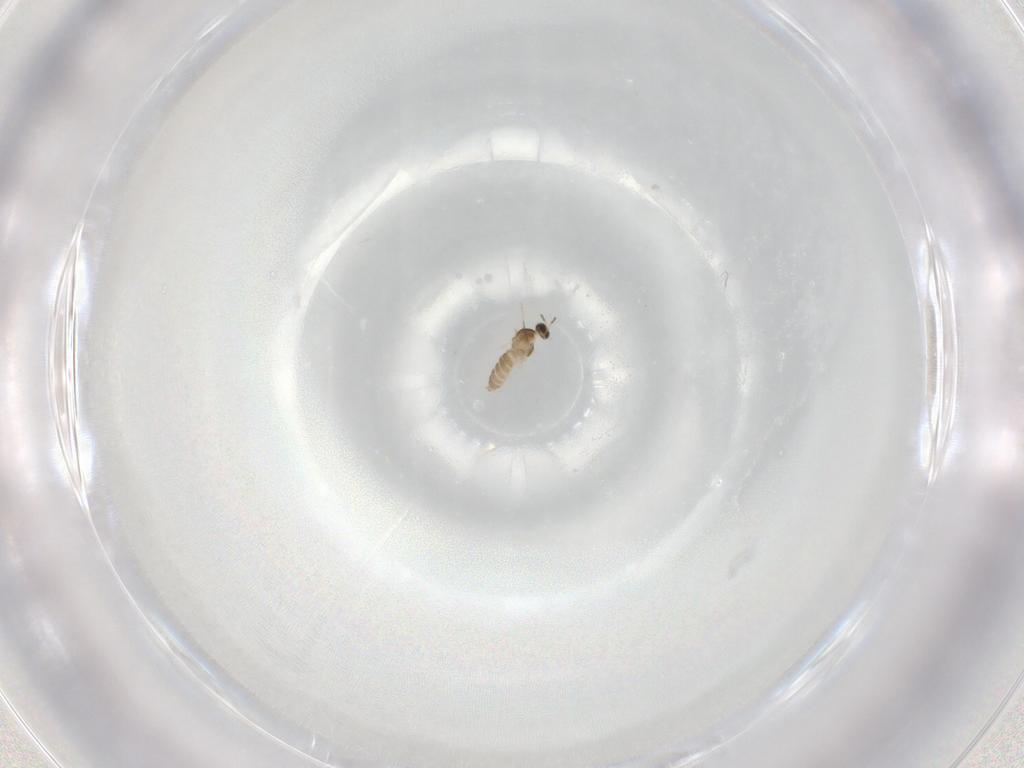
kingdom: Animalia
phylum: Arthropoda
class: Insecta
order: Diptera
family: Cecidomyiidae
